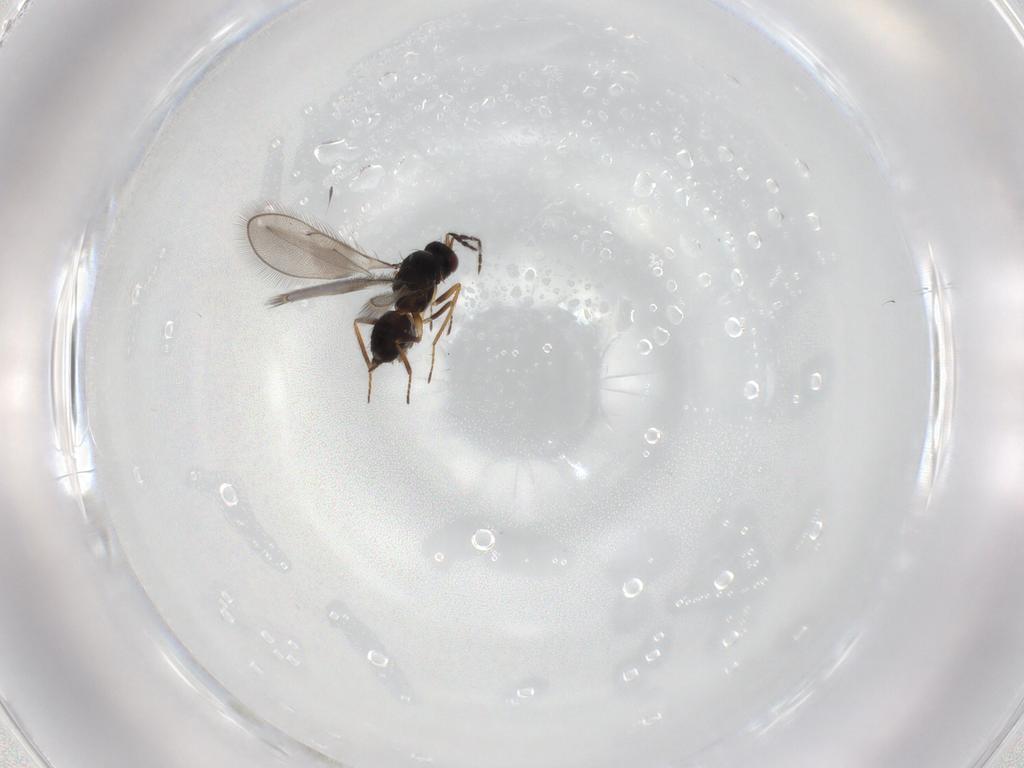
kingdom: Animalia
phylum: Arthropoda
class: Insecta
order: Hymenoptera
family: Eulophidae
